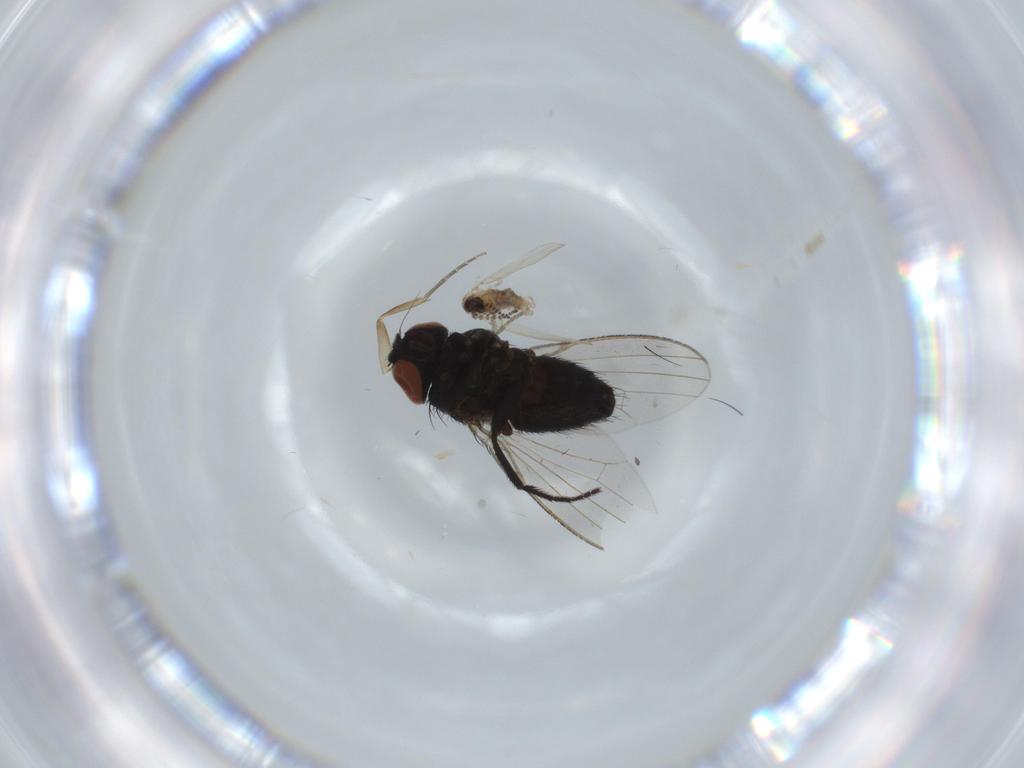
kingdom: Animalia
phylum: Arthropoda
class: Insecta
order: Diptera
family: Milichiidae
